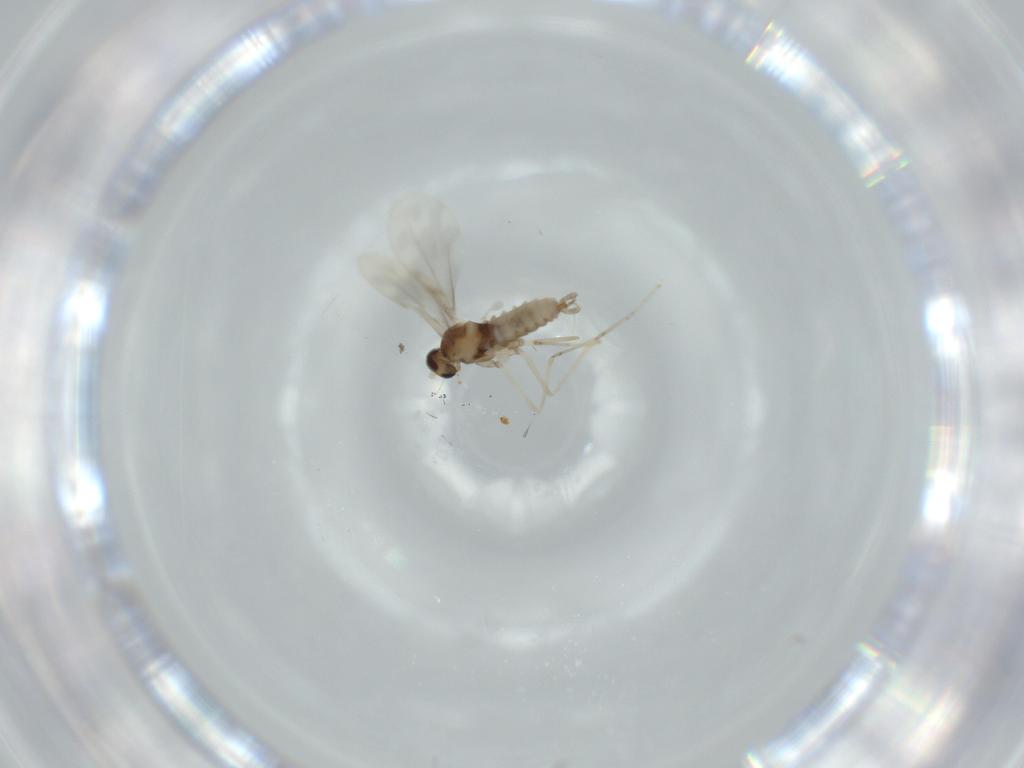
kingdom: Animalia
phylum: Arthropoda
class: Insecta
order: Diptera
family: Cecidomyiidae
